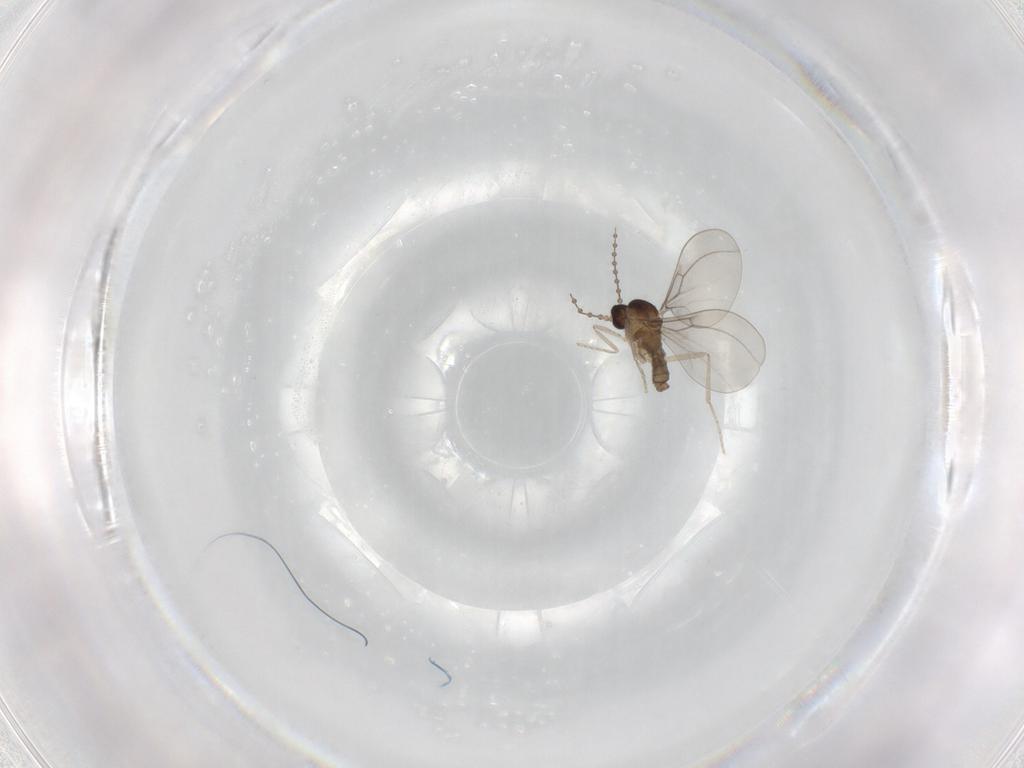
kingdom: Animalia
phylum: Arthropoda
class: Insecta
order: Diptera
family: Cecidomyiidae
